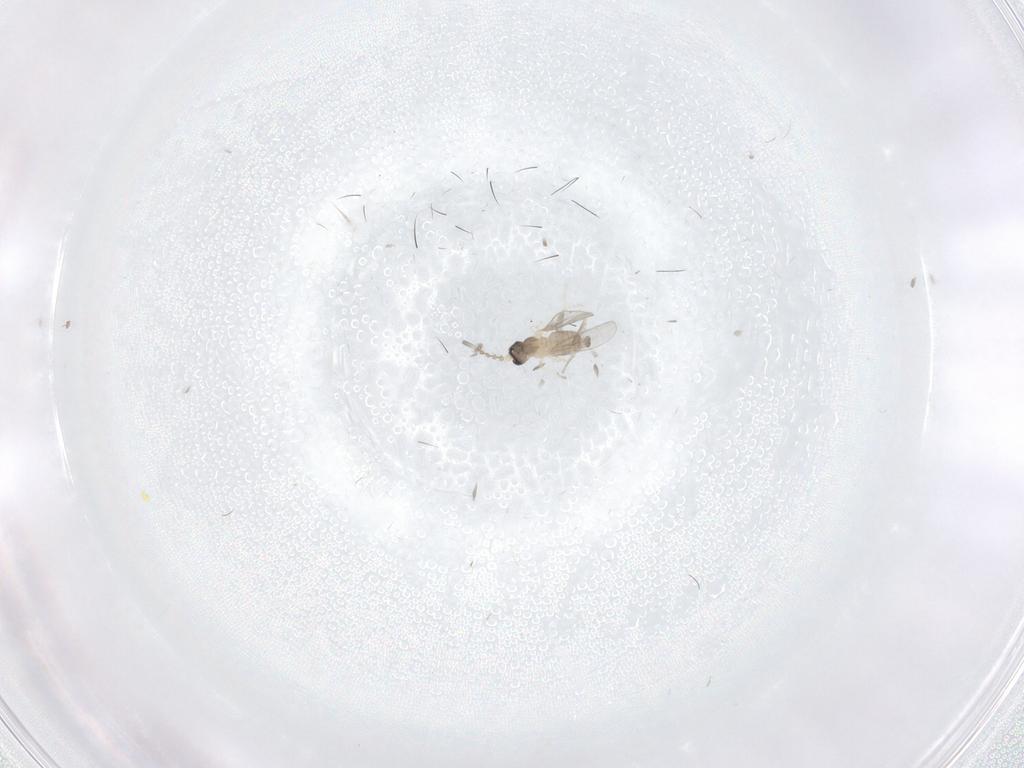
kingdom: Animalia
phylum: Arthropoda
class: Insecta
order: Diptera
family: Cecidomyiidae
